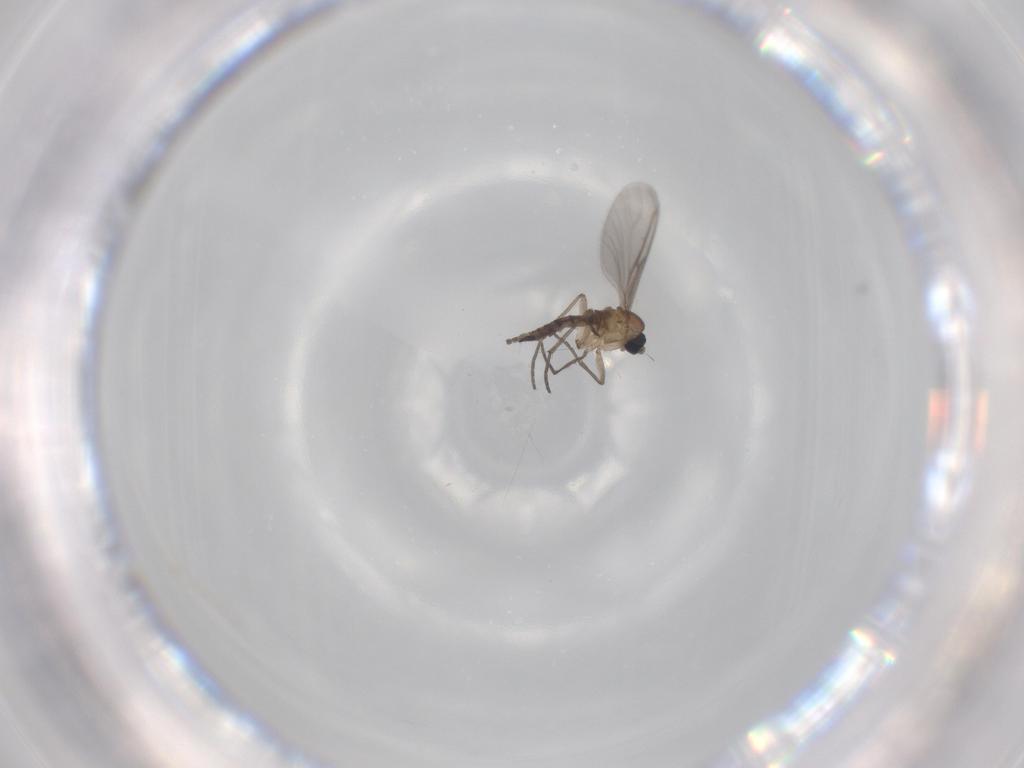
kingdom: Animalia
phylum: Arthropoda
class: Insecta
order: Diptera
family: Sciaridae
